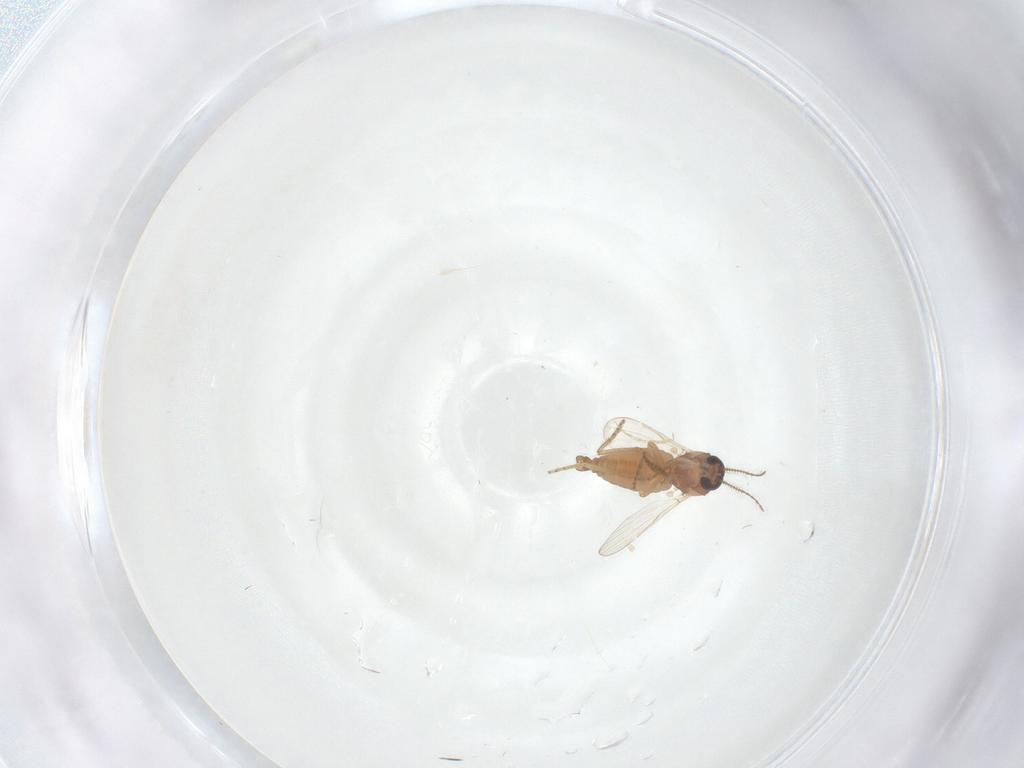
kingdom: Animalia
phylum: Arthropoda
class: Insecta
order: Diptera
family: Ceratopogonidae
